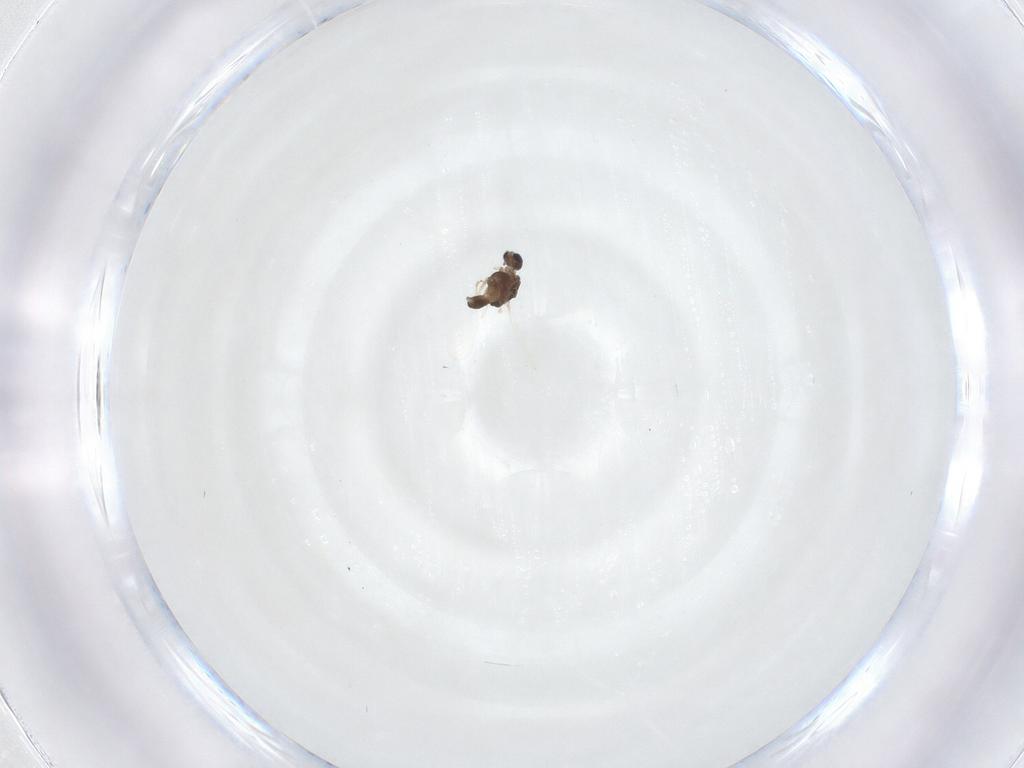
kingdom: Animalia
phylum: Arthropoda
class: Insecta
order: Diptera
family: Chironomidae
